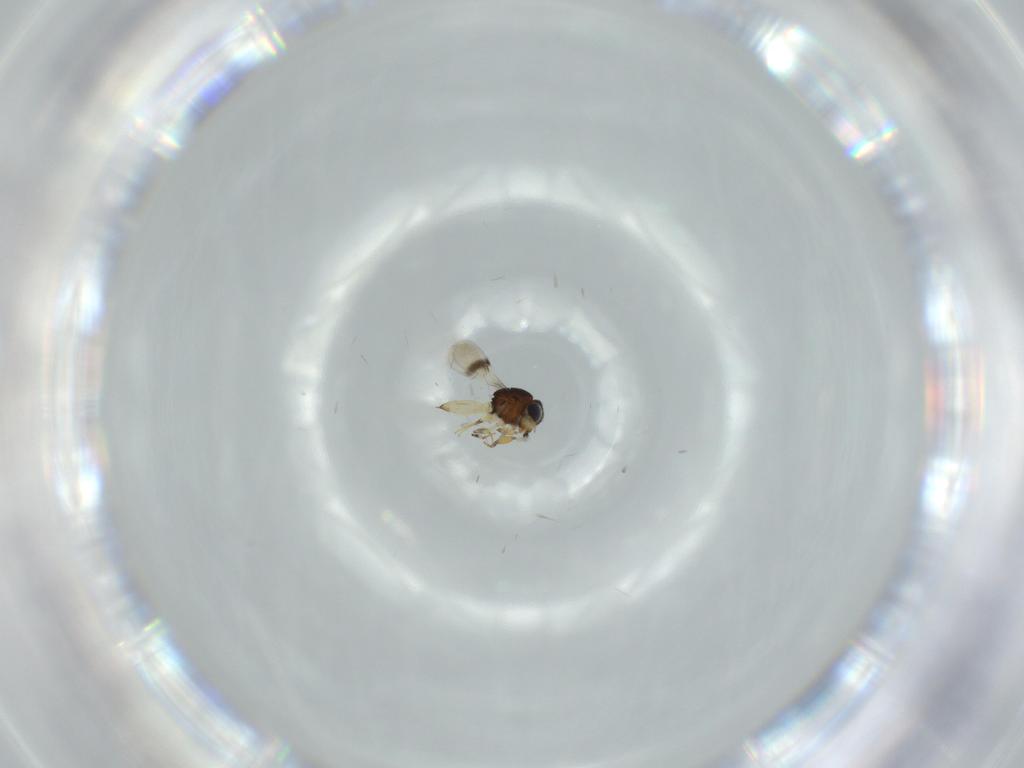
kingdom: Animalia
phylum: Arthropoda
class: Insecta
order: Hymenoptera
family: Scelionidae
